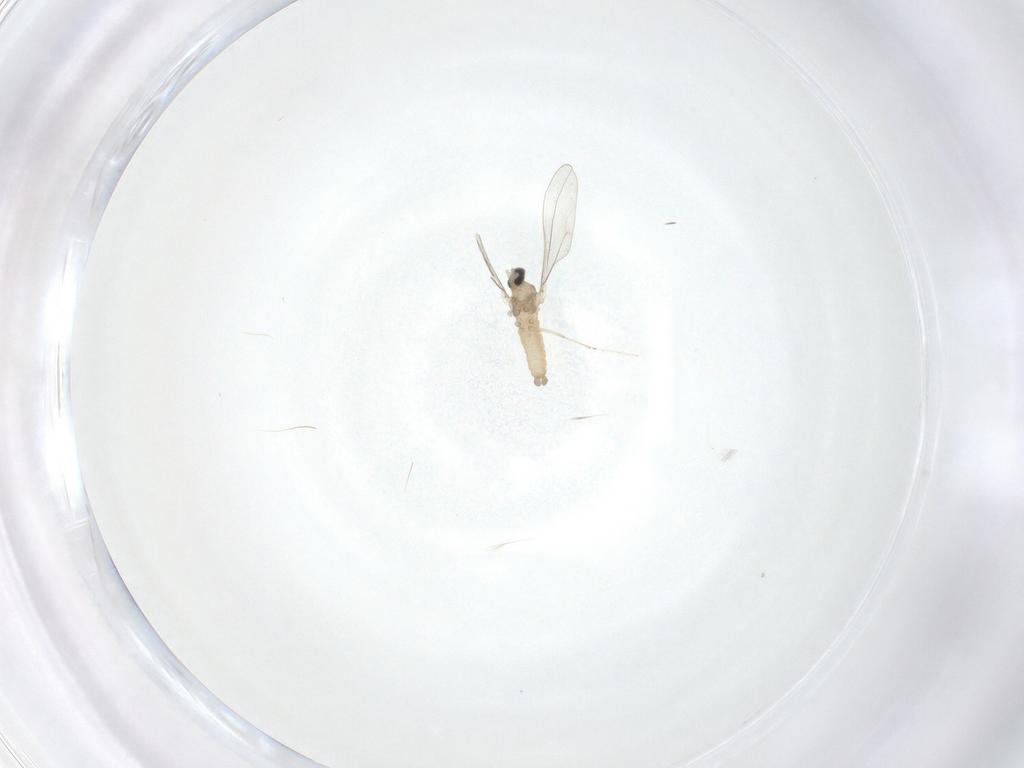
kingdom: Animalia
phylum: Arthropoda
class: Insecta
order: Diptera
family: Cecidomyiidae
